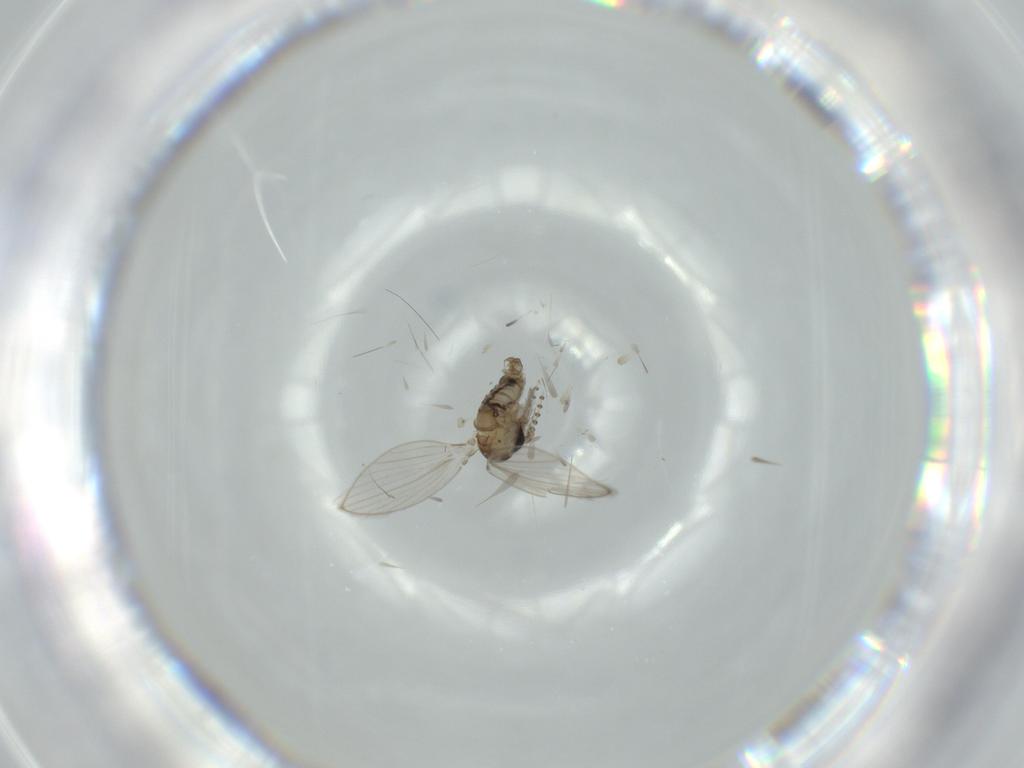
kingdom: Animalia
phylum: Arthropoda
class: Insecta
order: Diptera
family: Psychodidae
